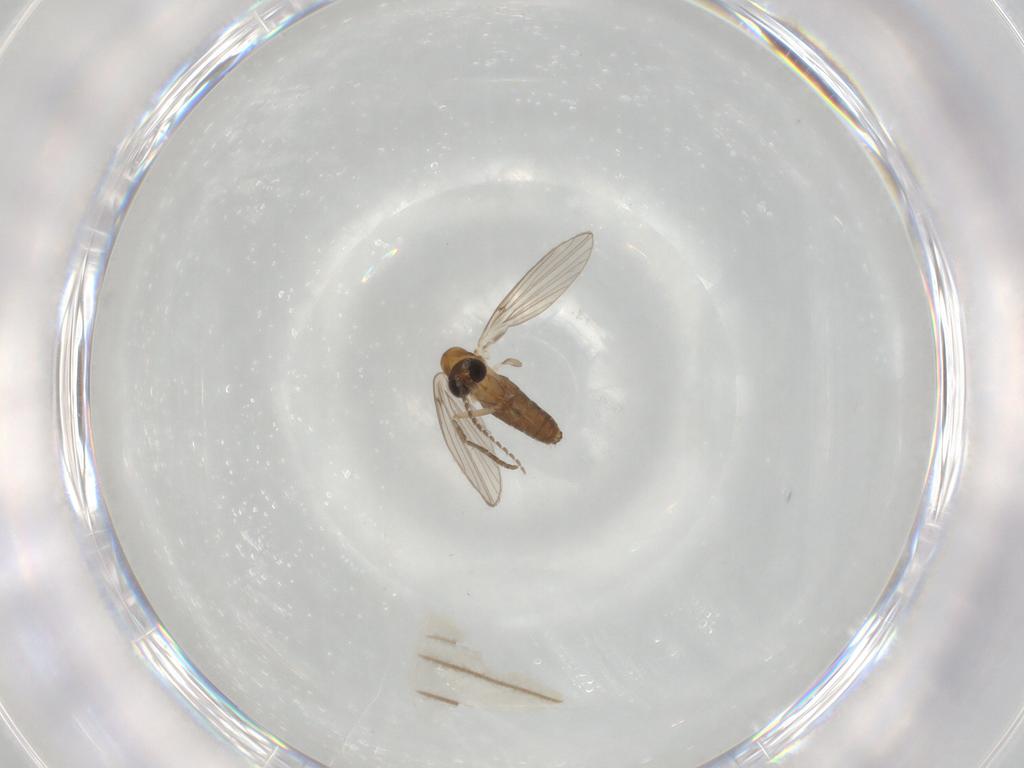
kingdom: Animalia
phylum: Arthropoda
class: Insecta
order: Diptera
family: Psychodidae
